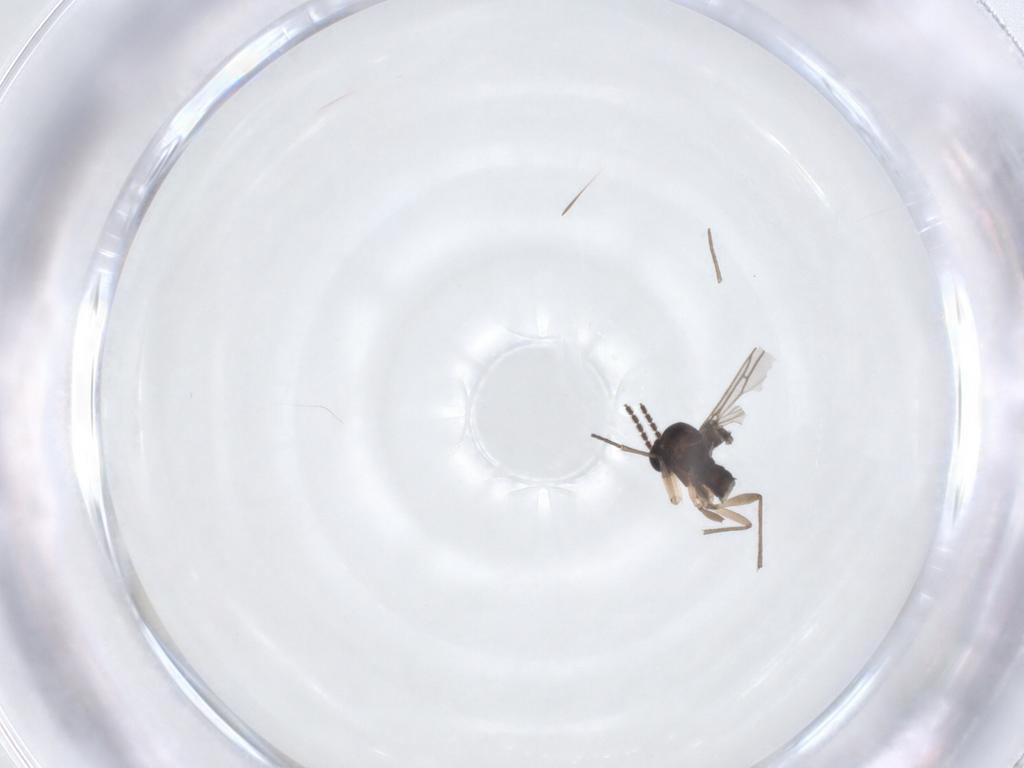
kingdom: Animalia
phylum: Arthropoda
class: Insecta
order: Diptera
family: Sciaridae
